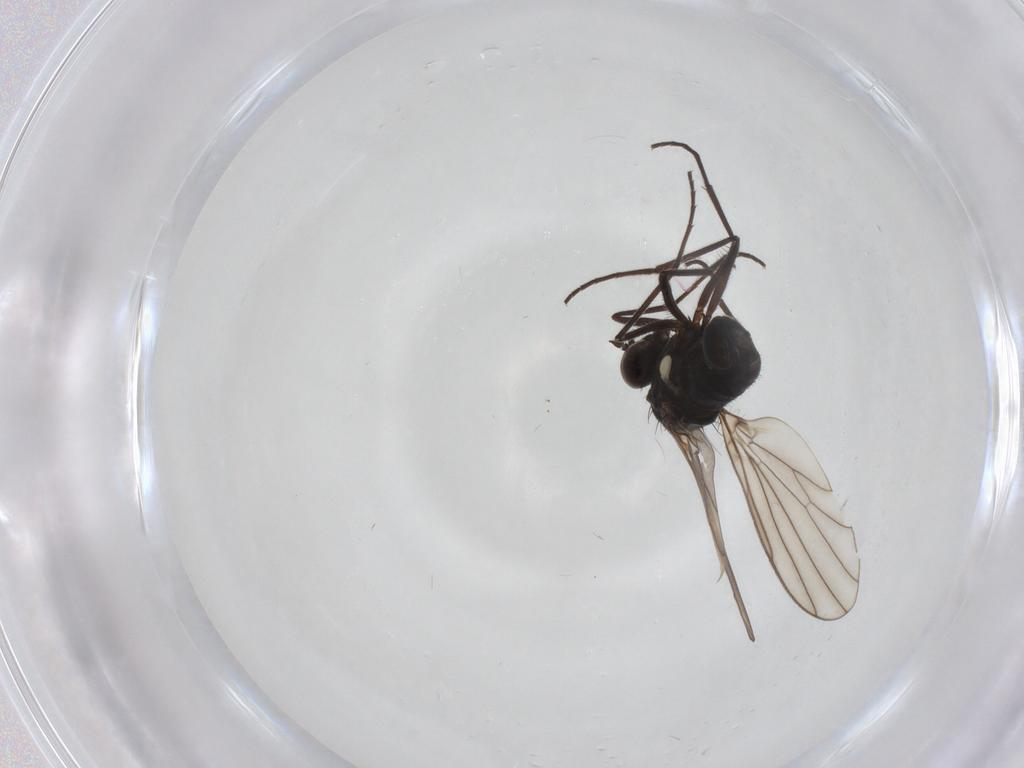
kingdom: Animalia
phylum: Arthropoda
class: Insecta
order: Diptera
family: Dolichopodidae
